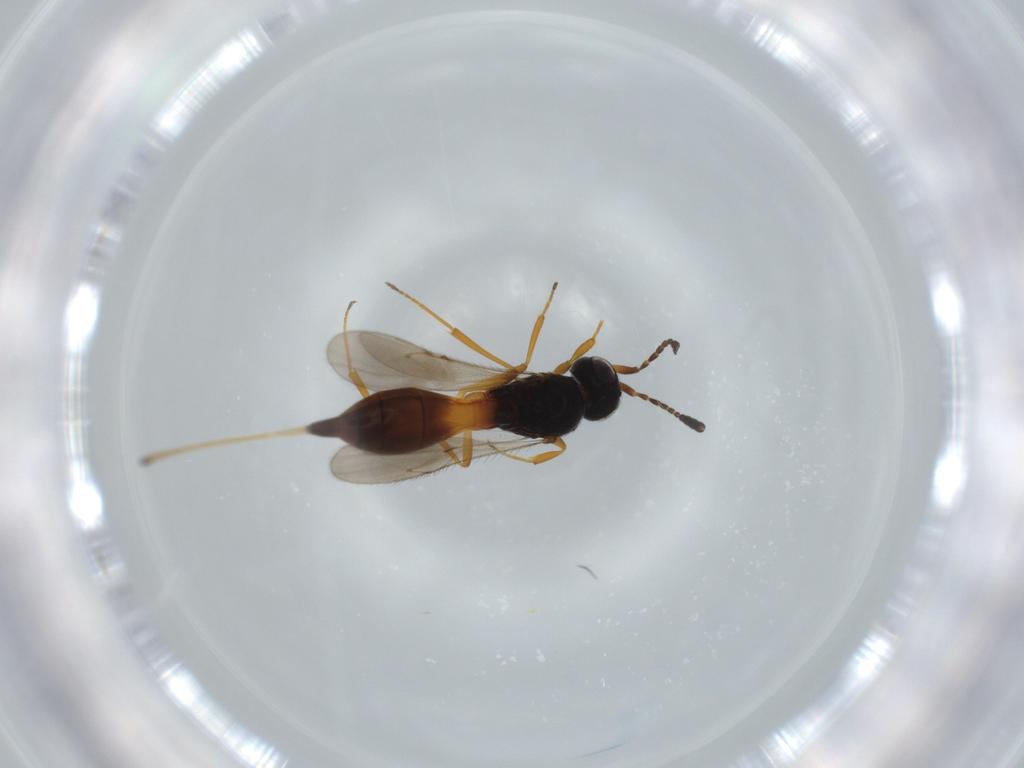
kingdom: Animalia
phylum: Arthropoda
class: Insecta
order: Hymenoptera
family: Scelionidae
